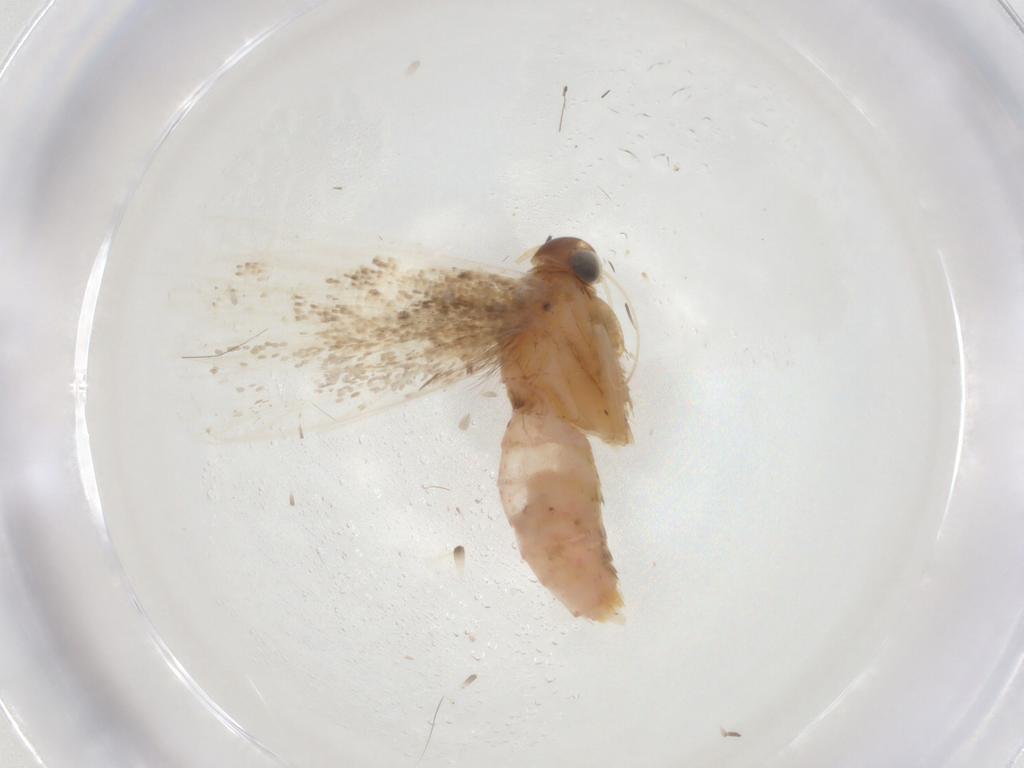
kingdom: Animalia
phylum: Arthropoda
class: Insecta
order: Lepidoptera
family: Gelechiidae
